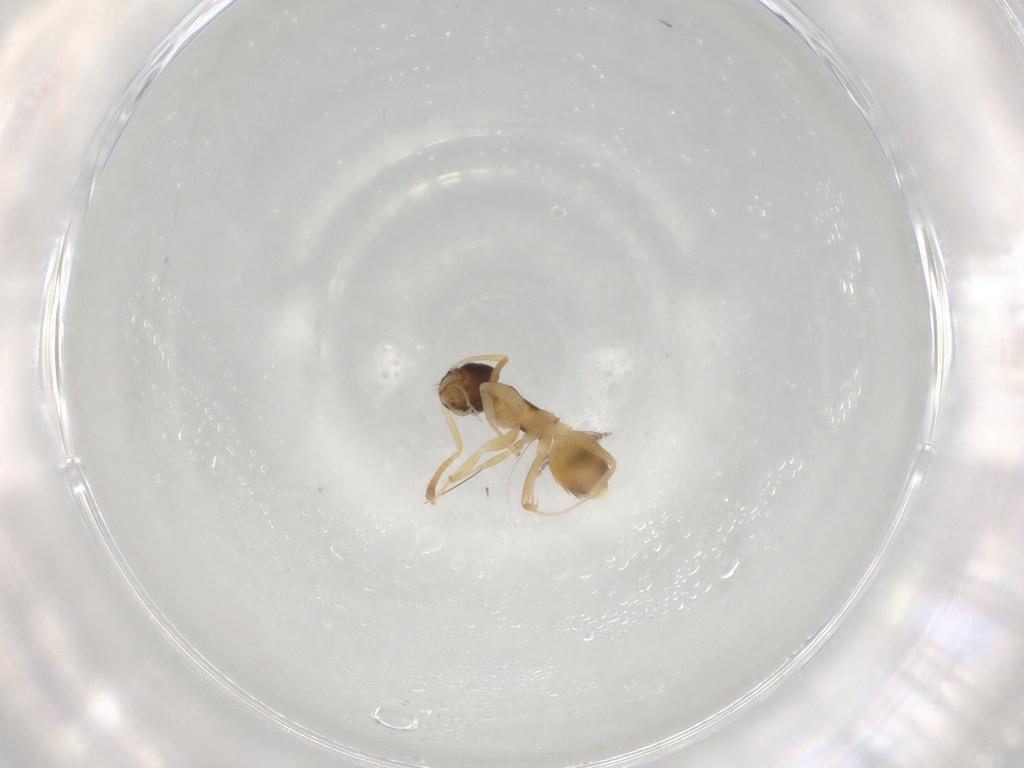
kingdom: Animalia
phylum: Arthropoda
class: Insecta
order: Hymenoptera
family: Formicidae
